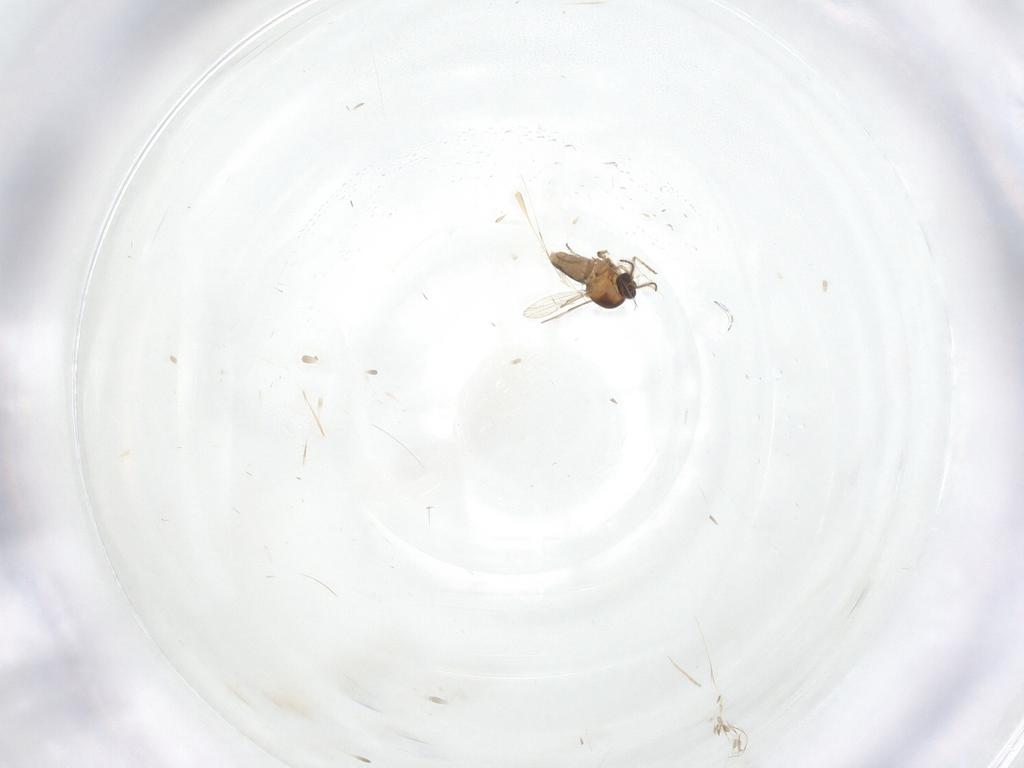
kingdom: Animalia
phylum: Arthropoda
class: Insecta
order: Diptera
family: Ceratopogonidae
